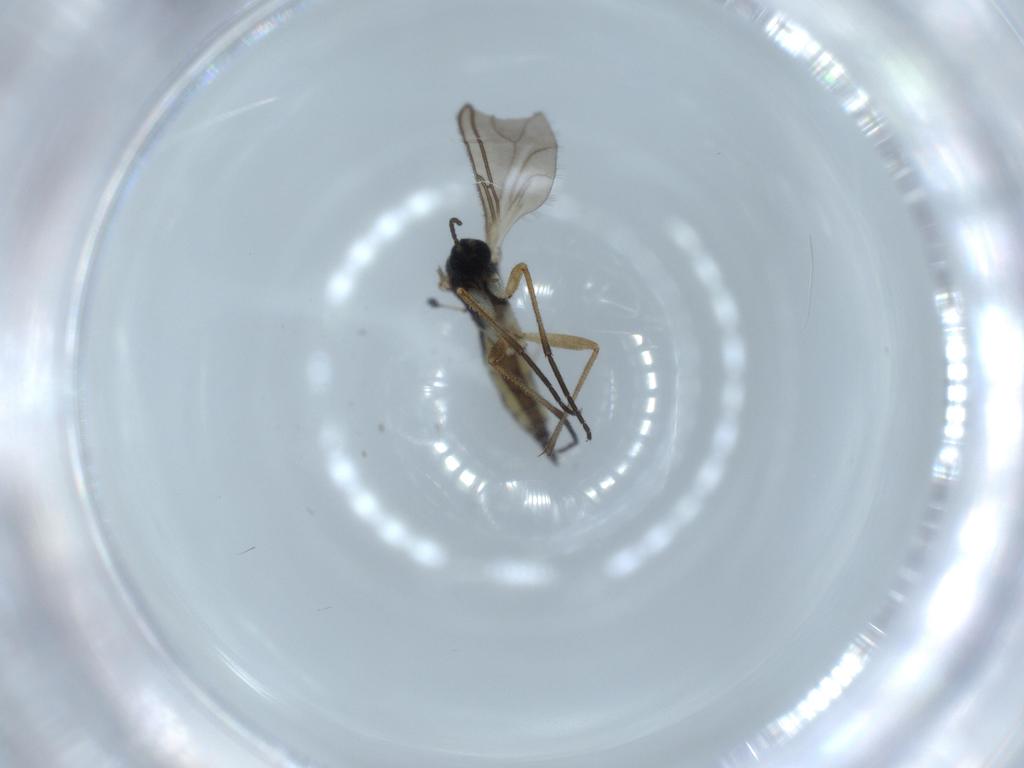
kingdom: Animalia
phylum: Arthropoda
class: Insecta
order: Diptera
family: Sciaridae
